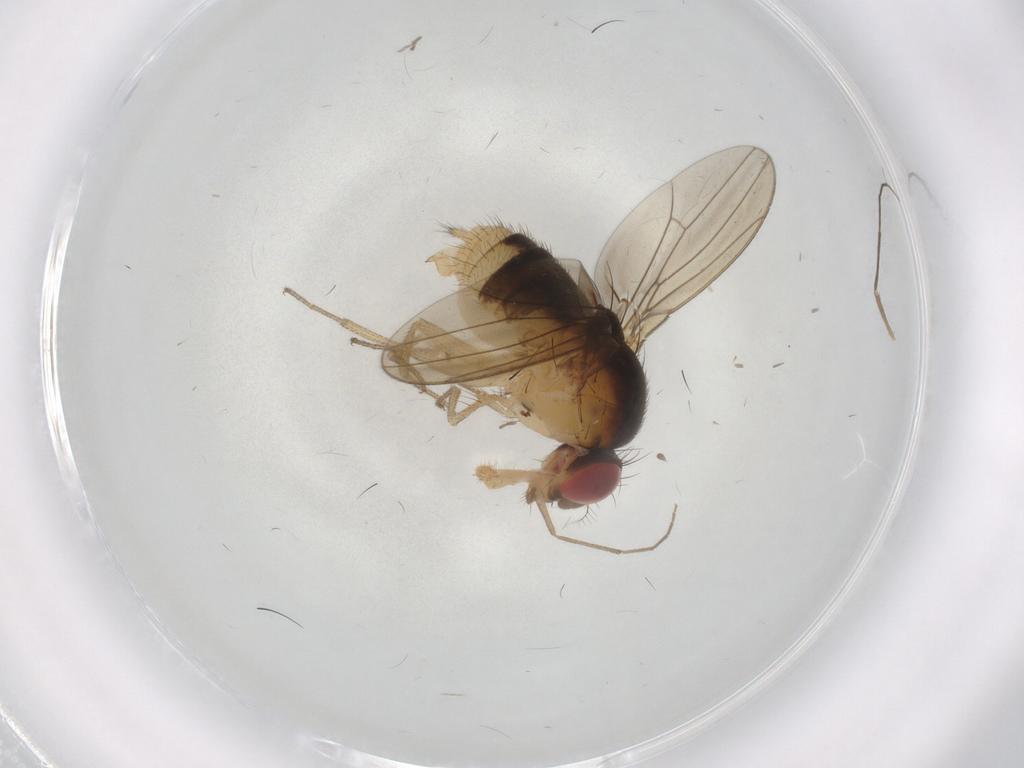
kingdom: Animalia
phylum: Arthropoda
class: Insecta
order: Diptera
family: Drosophilidae
